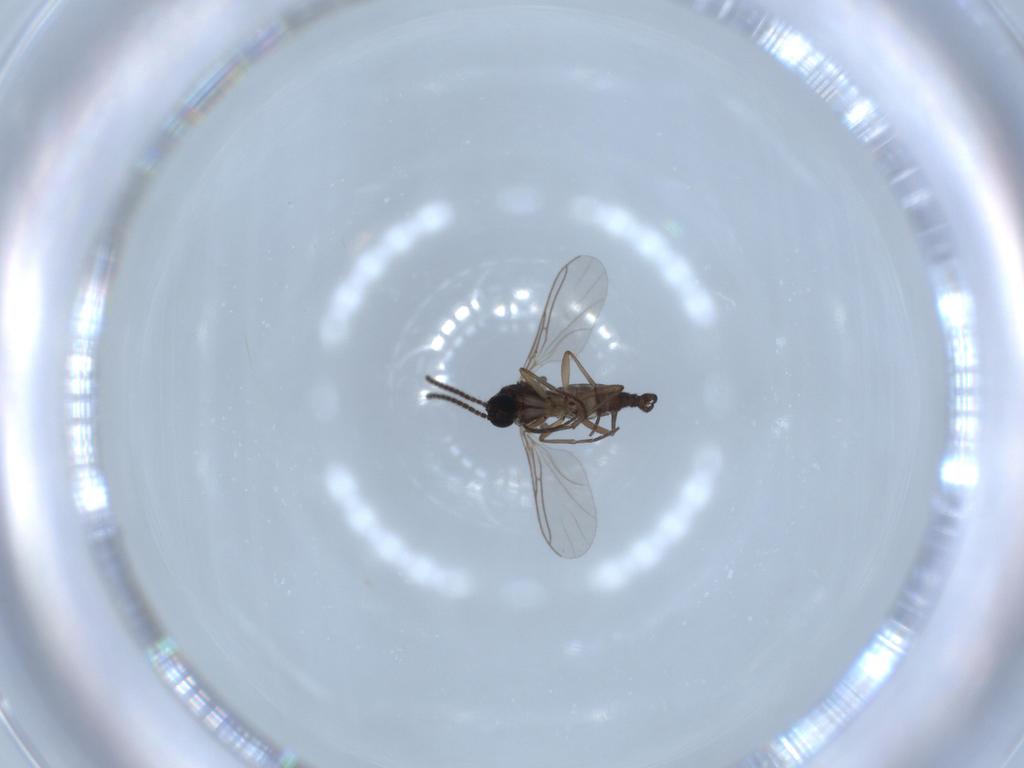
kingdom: Animalia
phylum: Arthropoda
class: Insecta
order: Diptera
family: Sciaridae
